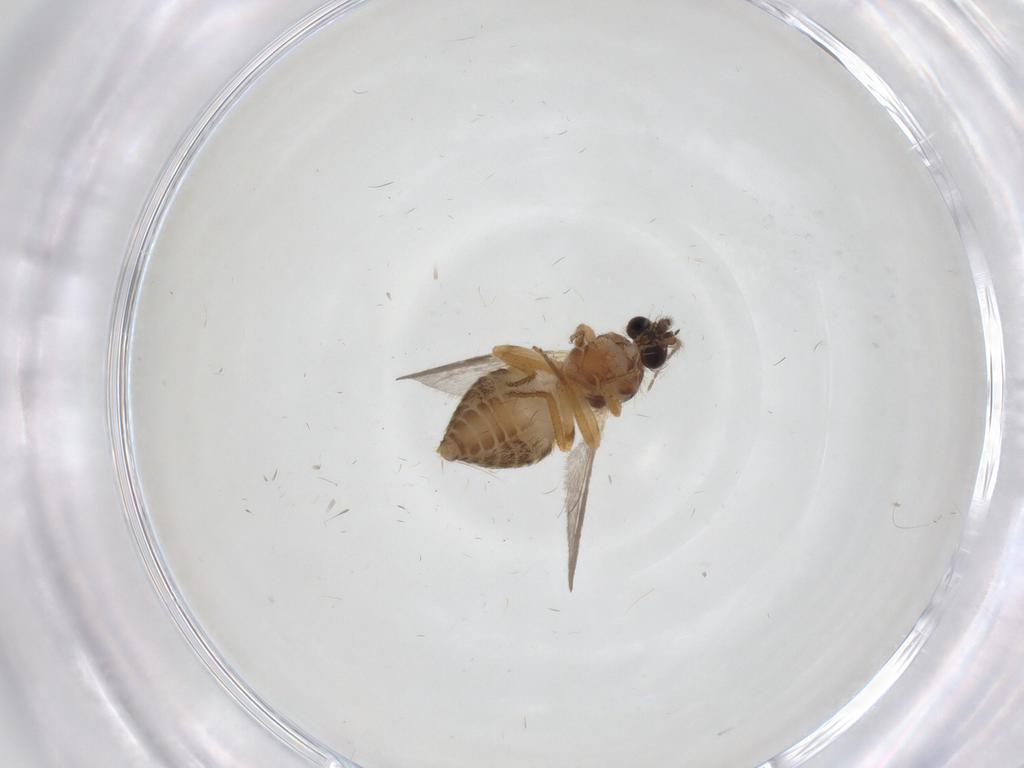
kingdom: Animalia
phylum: Arthropoda
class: Insecta
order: Diptera
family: Ceratopogonidae
